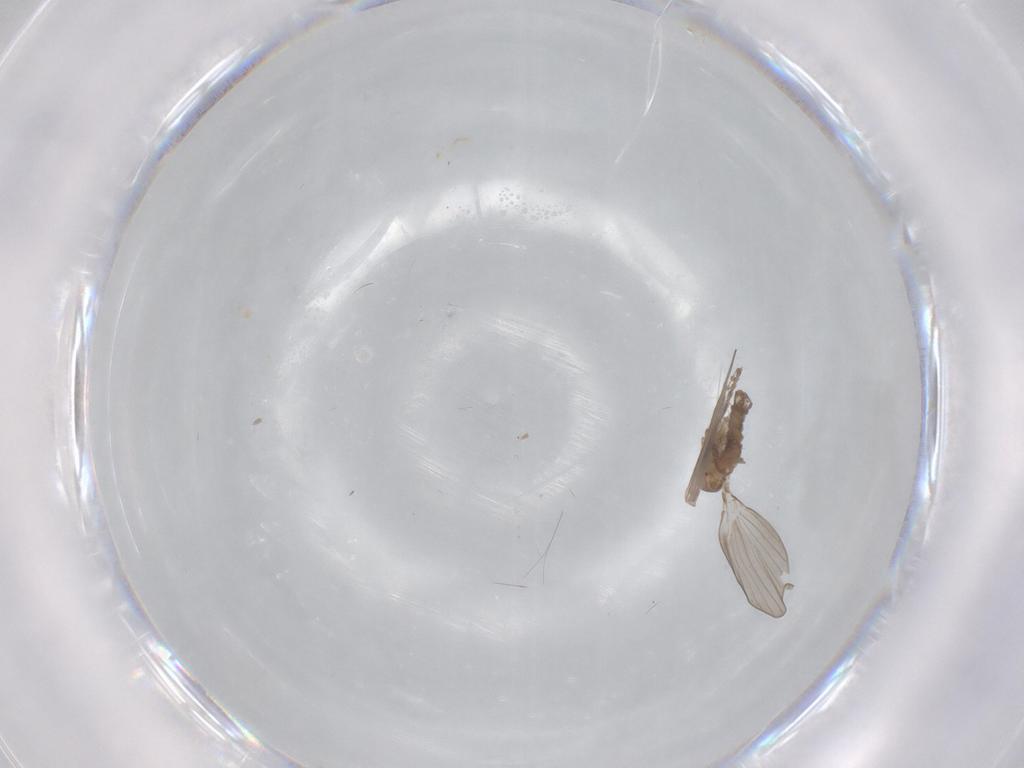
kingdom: Animalia
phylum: Arthropoda
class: Insecta
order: Diptera
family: Psychodidae
